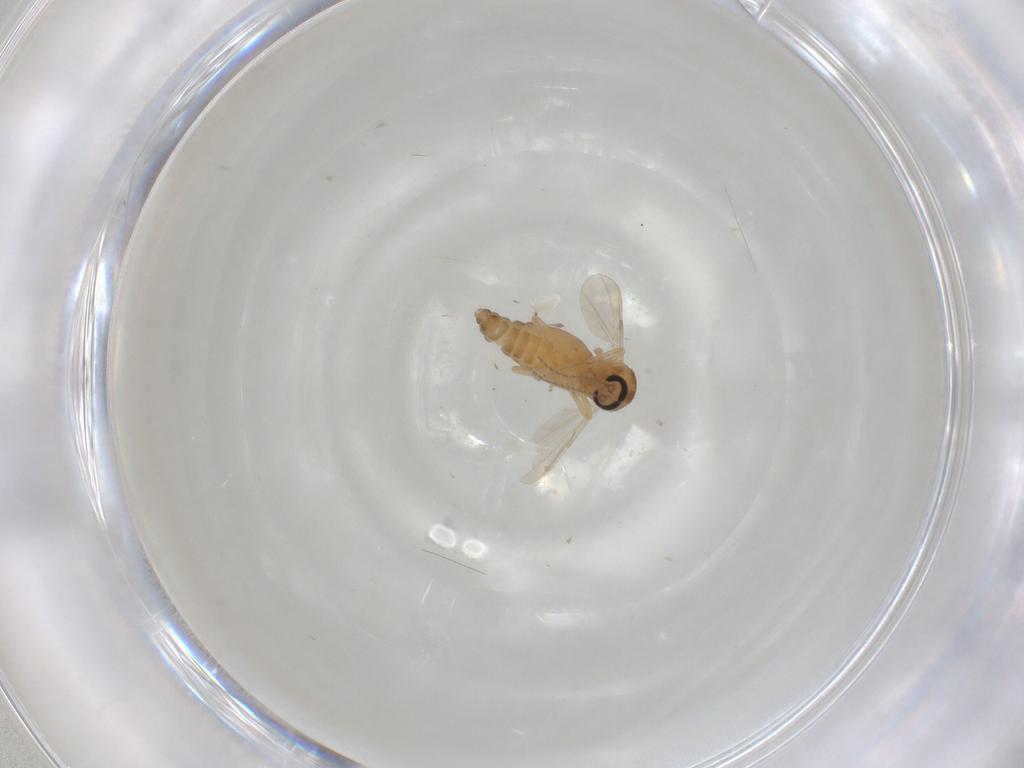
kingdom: Animalia
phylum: Arthropoda
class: Insecta
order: Diptera
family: Ceratopogonidae
